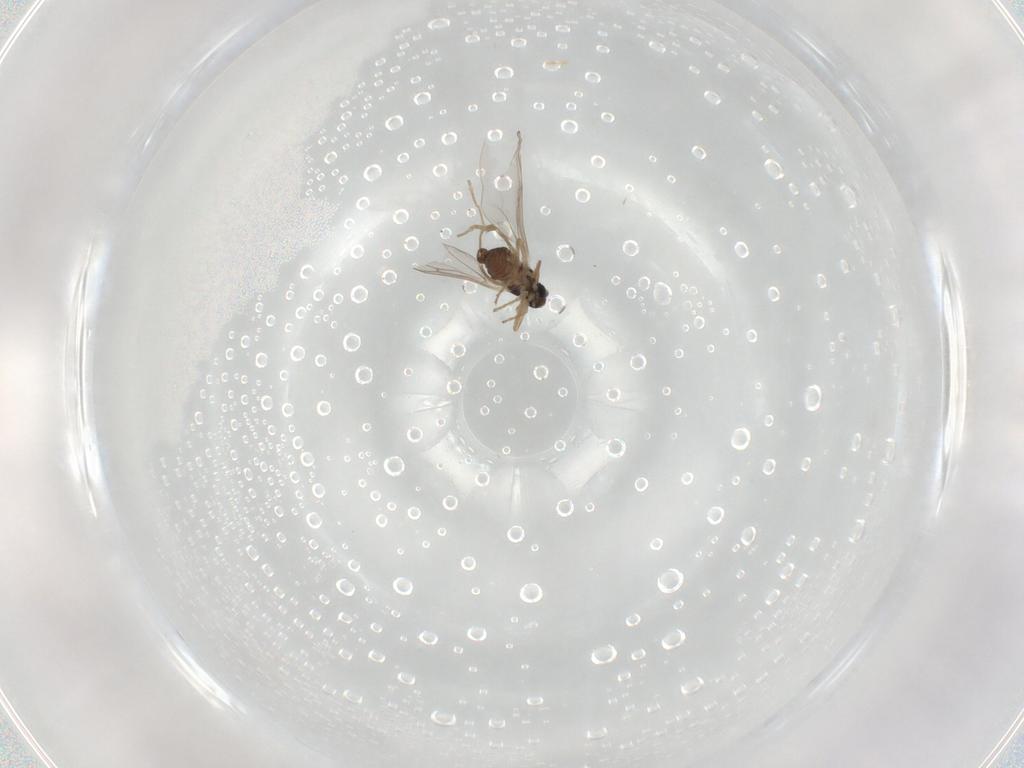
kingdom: Animalia
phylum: Arthropoda
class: Insecta
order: Diptera
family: Cecidomyiidae
